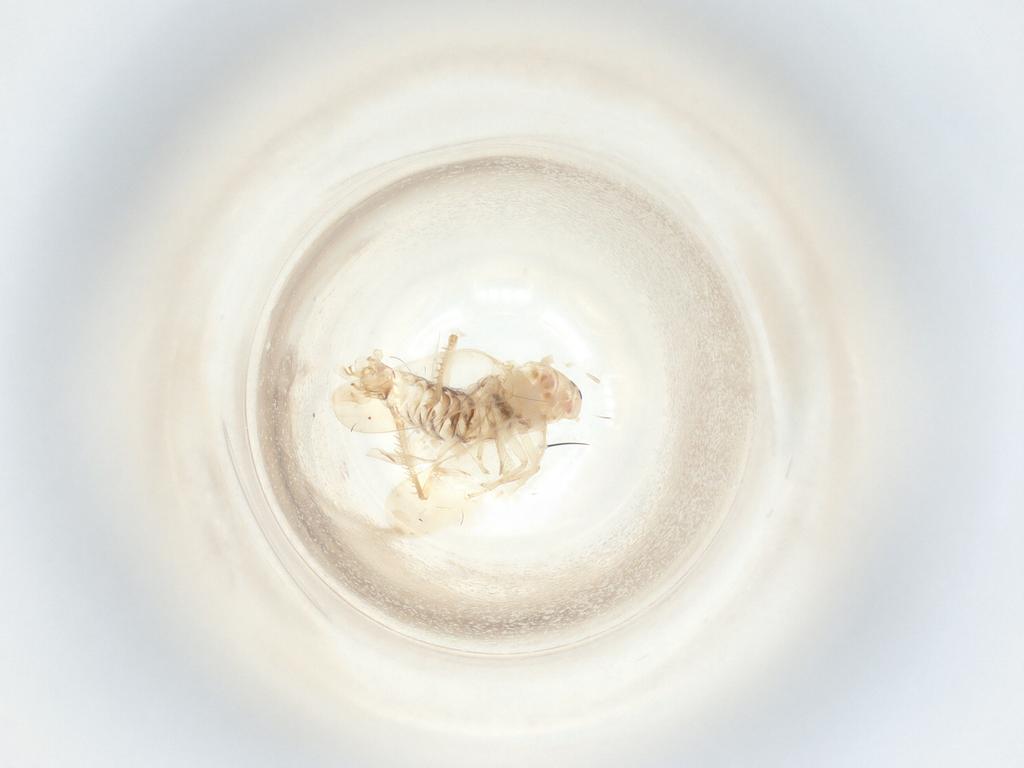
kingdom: Animalia
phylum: Arthropoda
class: Insecta
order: Hemiptera
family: Cicadellidae
